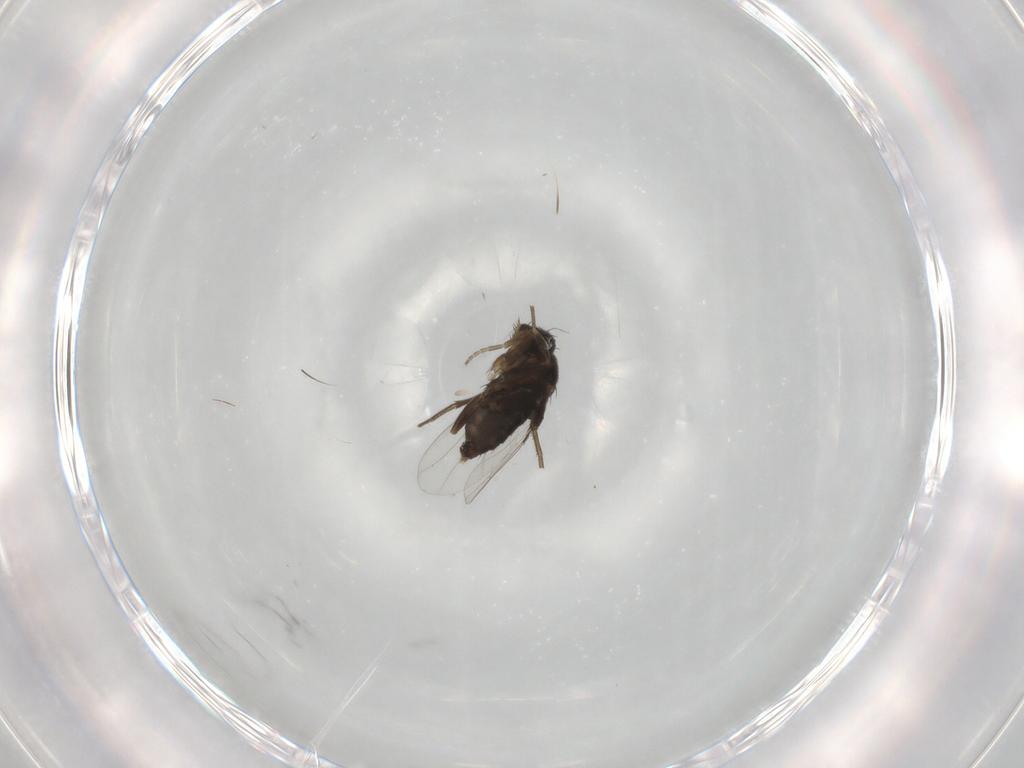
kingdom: Animalia
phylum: Arthropoda
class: Insecta
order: Diptera
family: Phoridae
